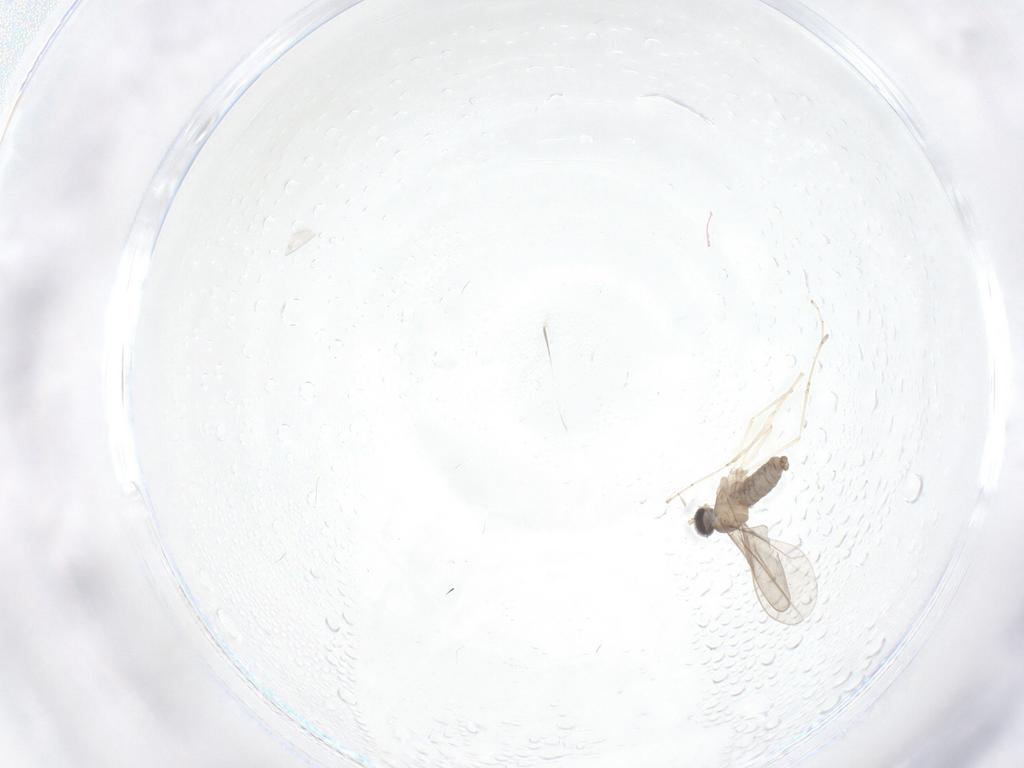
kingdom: Animalia
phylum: Arthropoda
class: Insecta
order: Diptera
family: Cecidomyiidae
